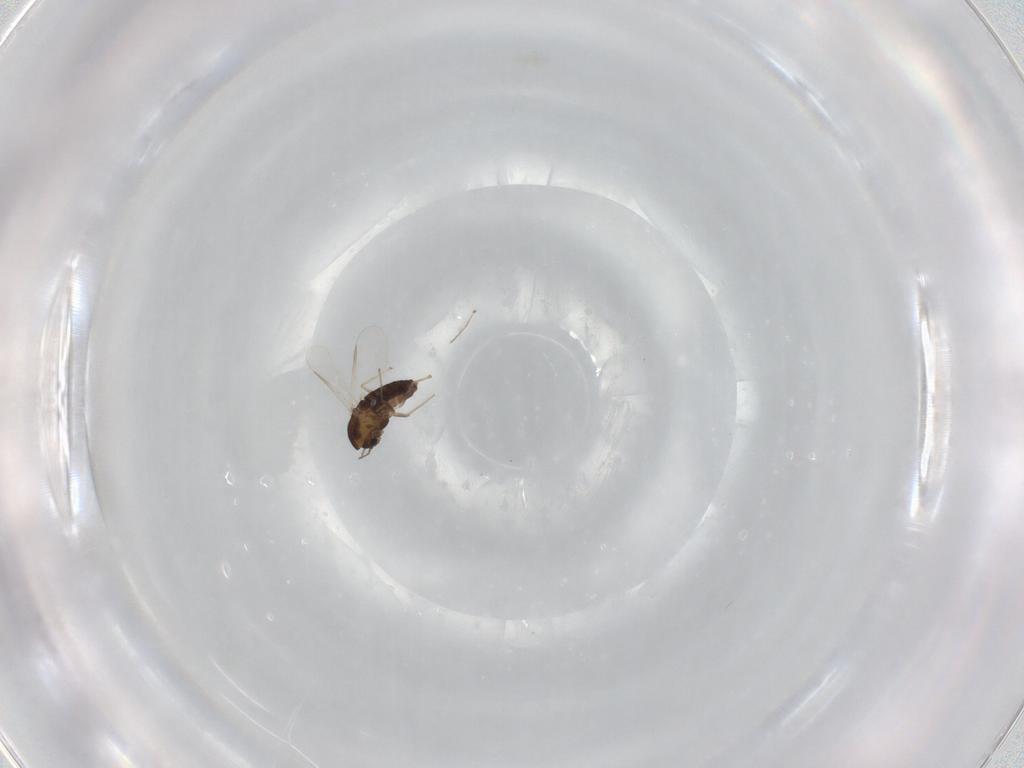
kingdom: Animalia
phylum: Arthropoda
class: Insecta
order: Diptera
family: Chironomidae
